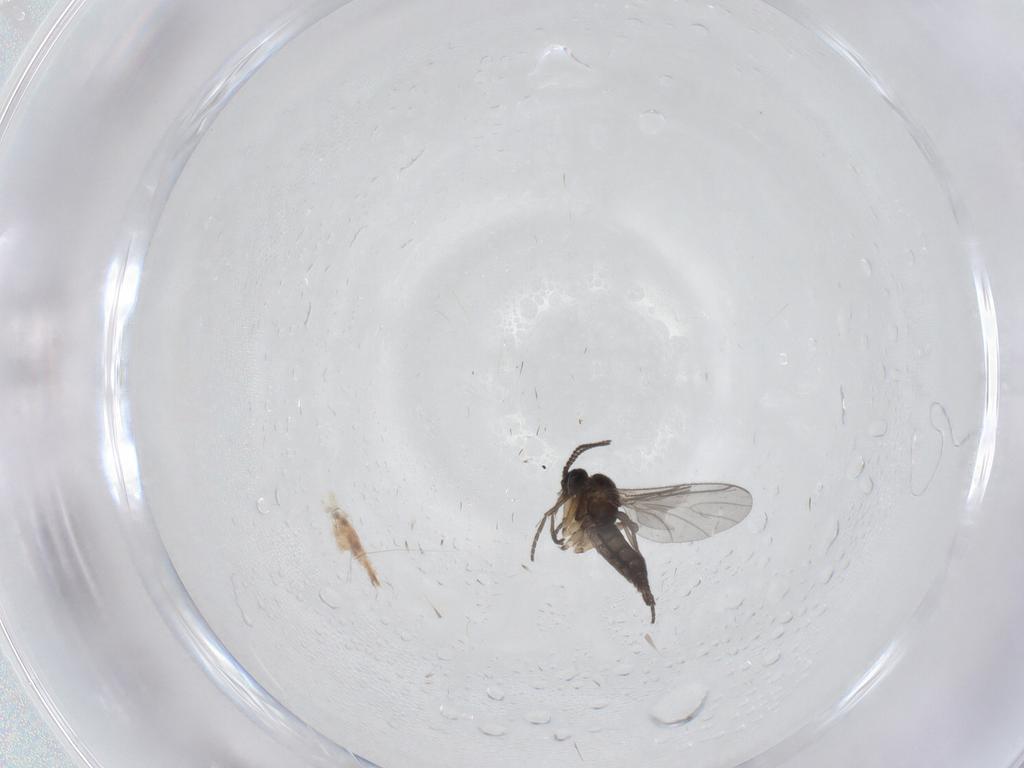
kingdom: Animalia
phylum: Arthropoda
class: Insecta
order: Diptera
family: Sciaridae
